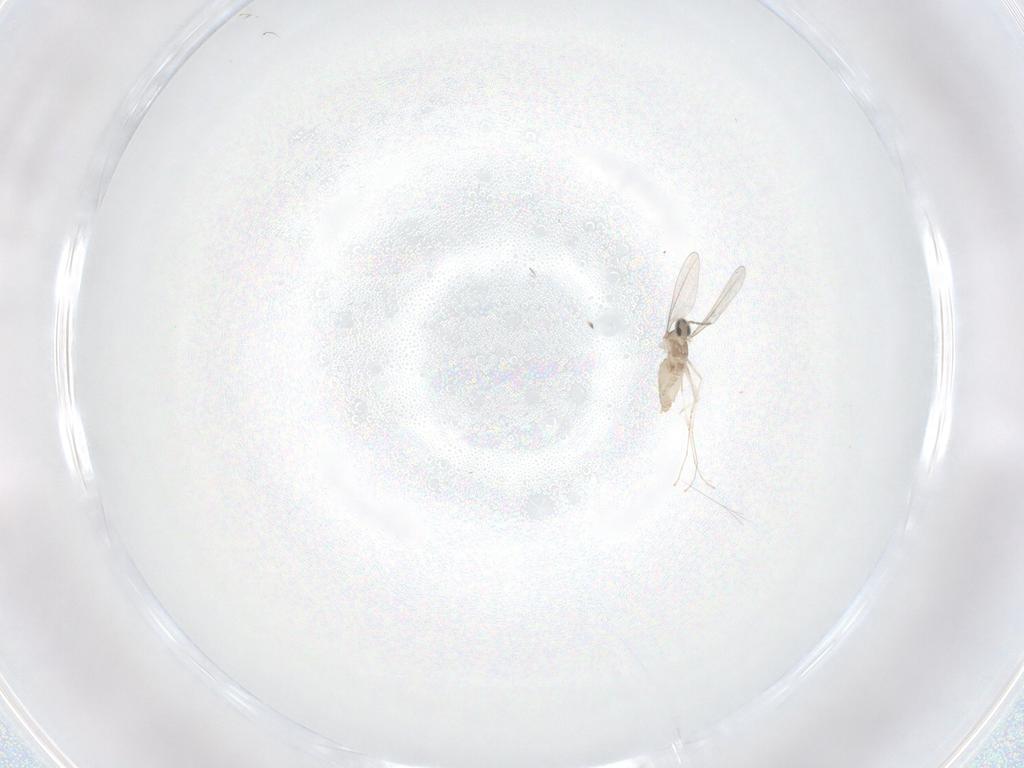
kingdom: Animalia
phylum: Arthropoda
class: Insecta
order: Diptera
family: Cecidomyiidae
